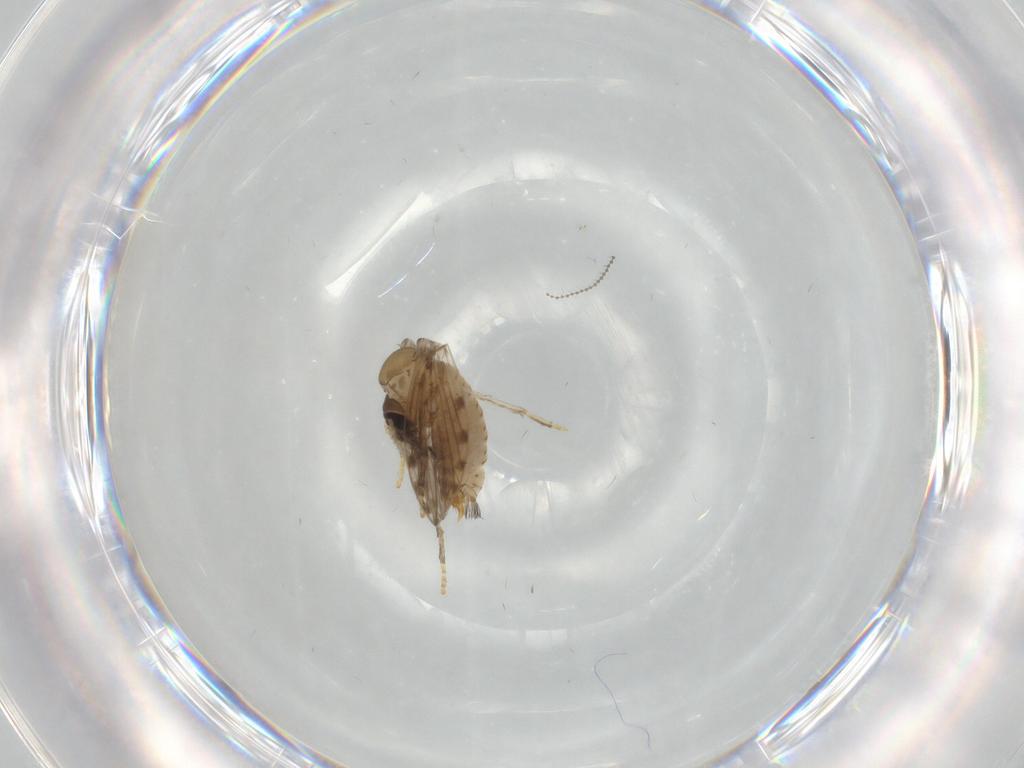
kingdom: Animalia
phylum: Arthropoda
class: Insecta
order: Diptera
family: Cecidomyiidae
